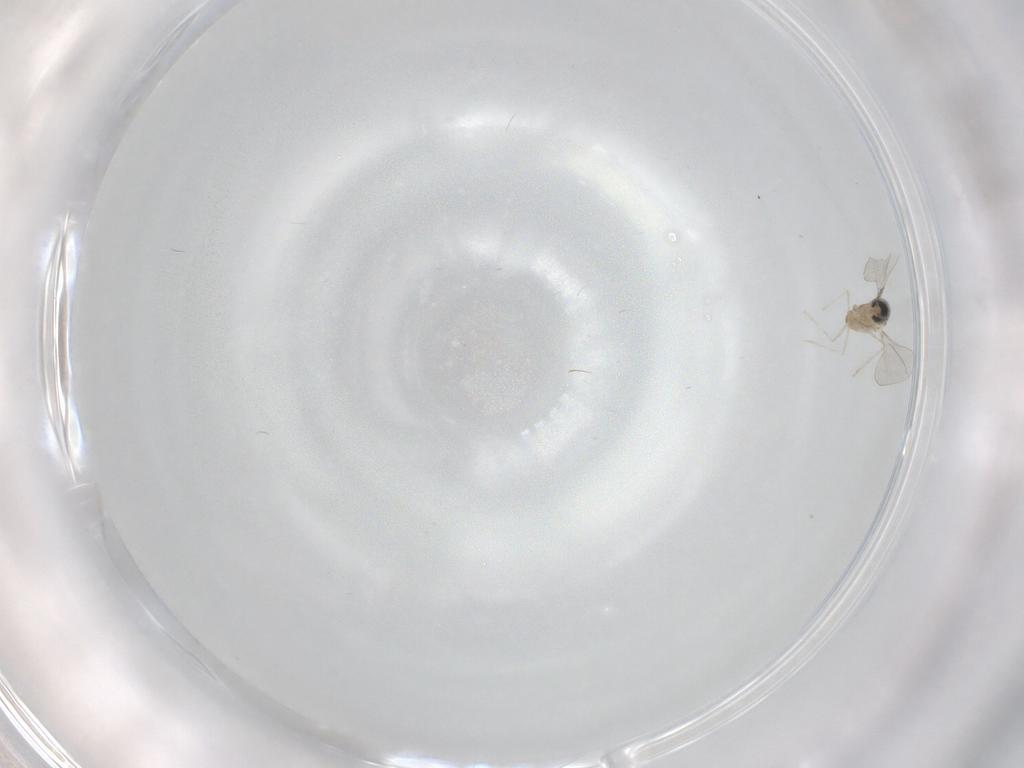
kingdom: Animalia
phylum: Arthropoda
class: Insecta
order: Diptera
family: Cecidomyiidae
